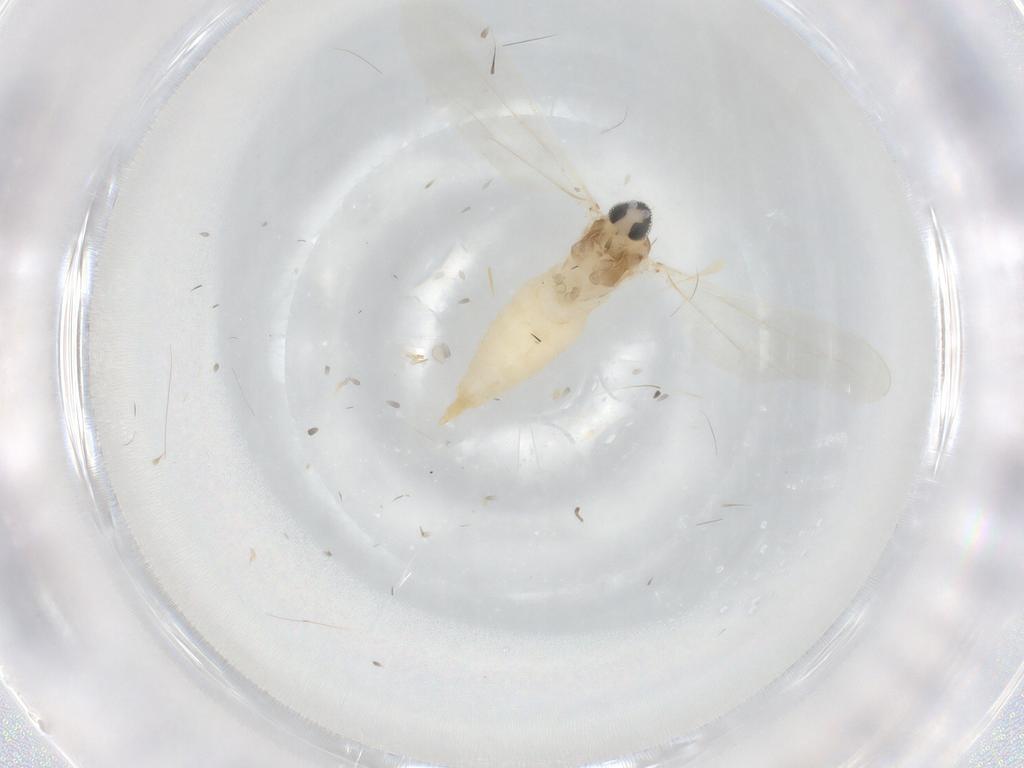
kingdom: Animalia
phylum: Arthropoda
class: Insecta
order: Diptera
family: Cecidomyiidae
